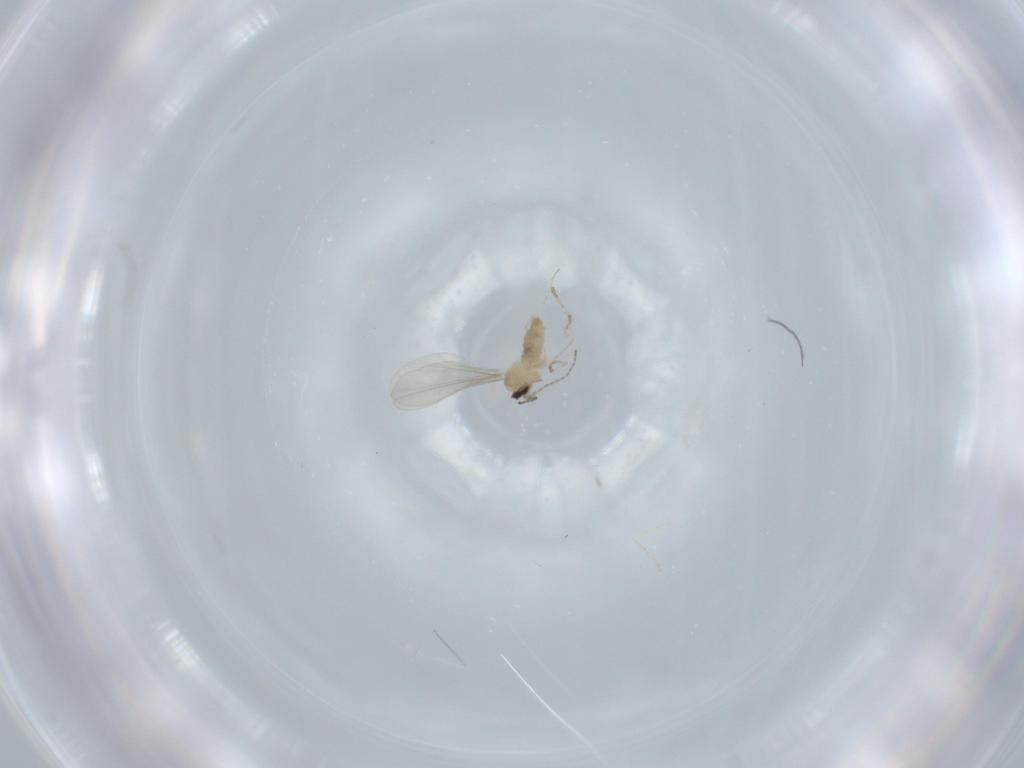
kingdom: Animalia
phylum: Arthropoda
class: Insecta
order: Diptera
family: Cecidomyiidae
